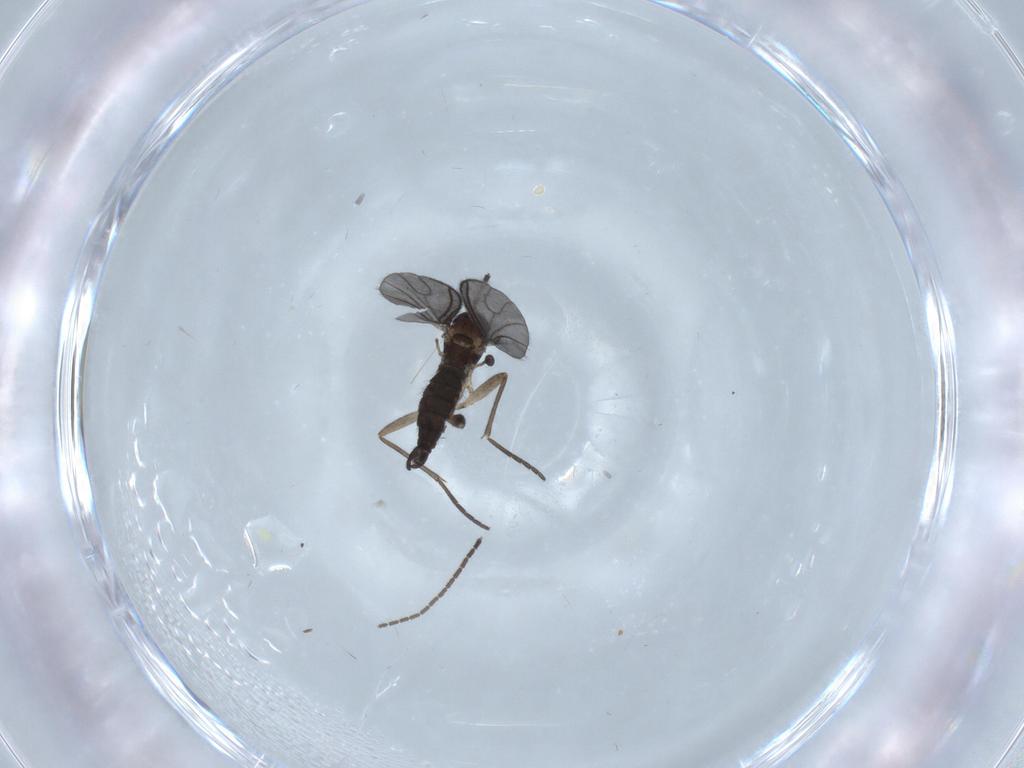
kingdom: Animalia
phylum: Arthropoda
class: Insecta
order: Diptera
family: Sciaridae
